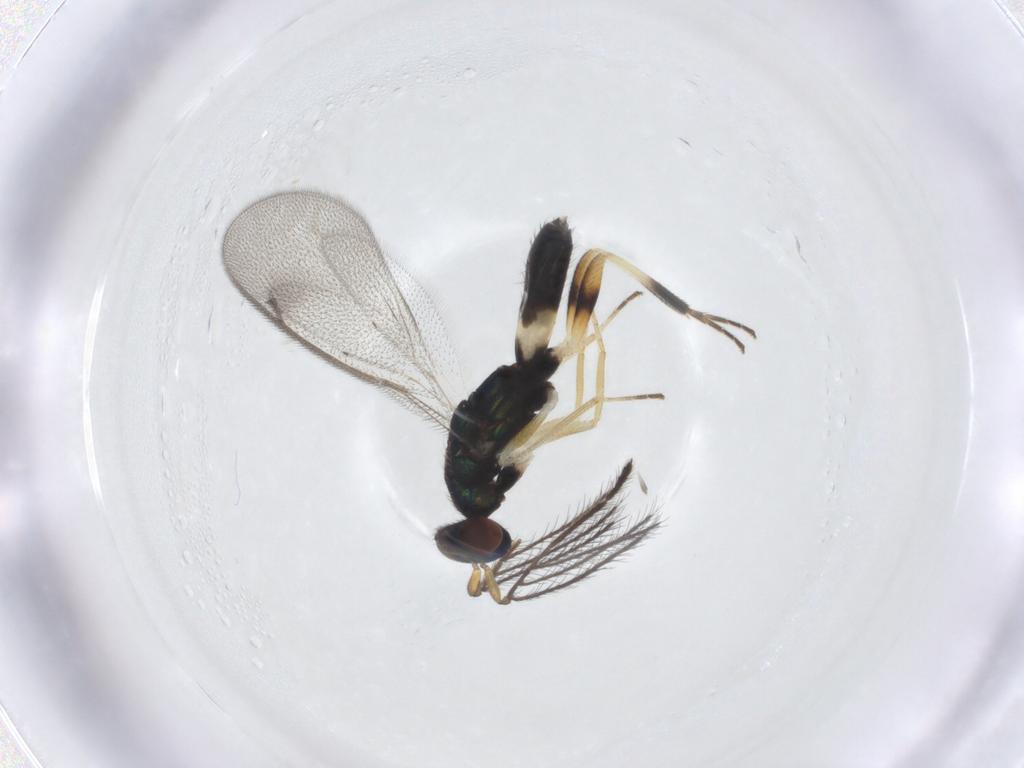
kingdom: Animalia
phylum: Arthropoda
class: Insecta
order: Hymenoptera
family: Eulophidae
